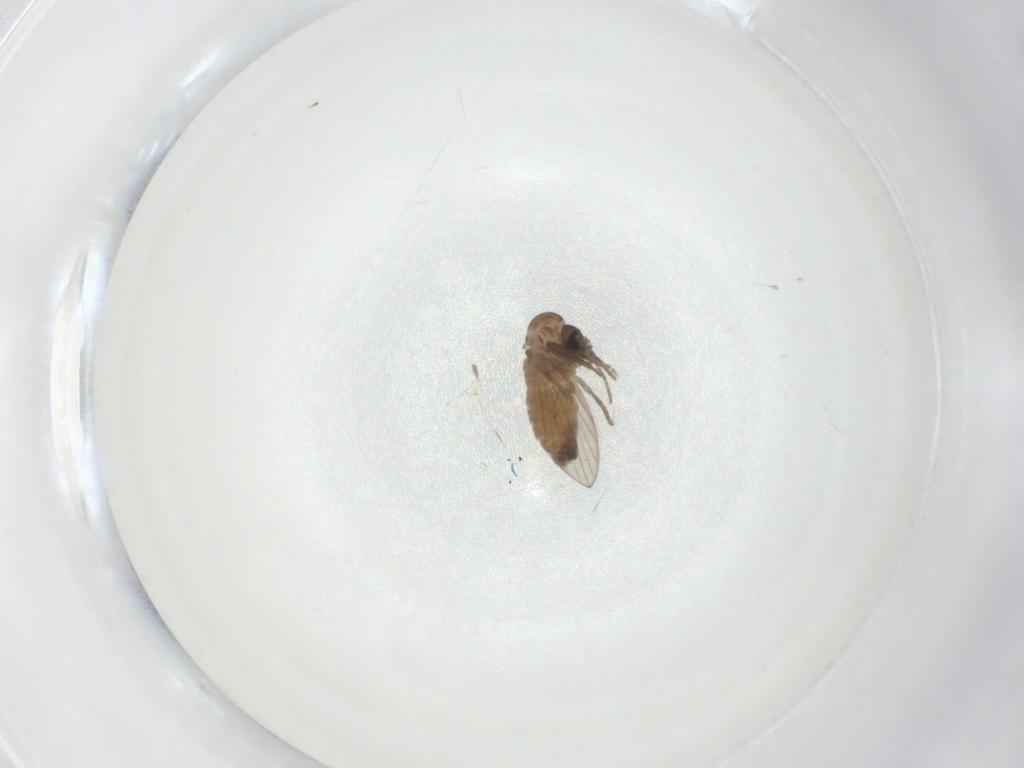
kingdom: Animalia
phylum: Arthropoda
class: Insecta
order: Diptera
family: Psychodidae
